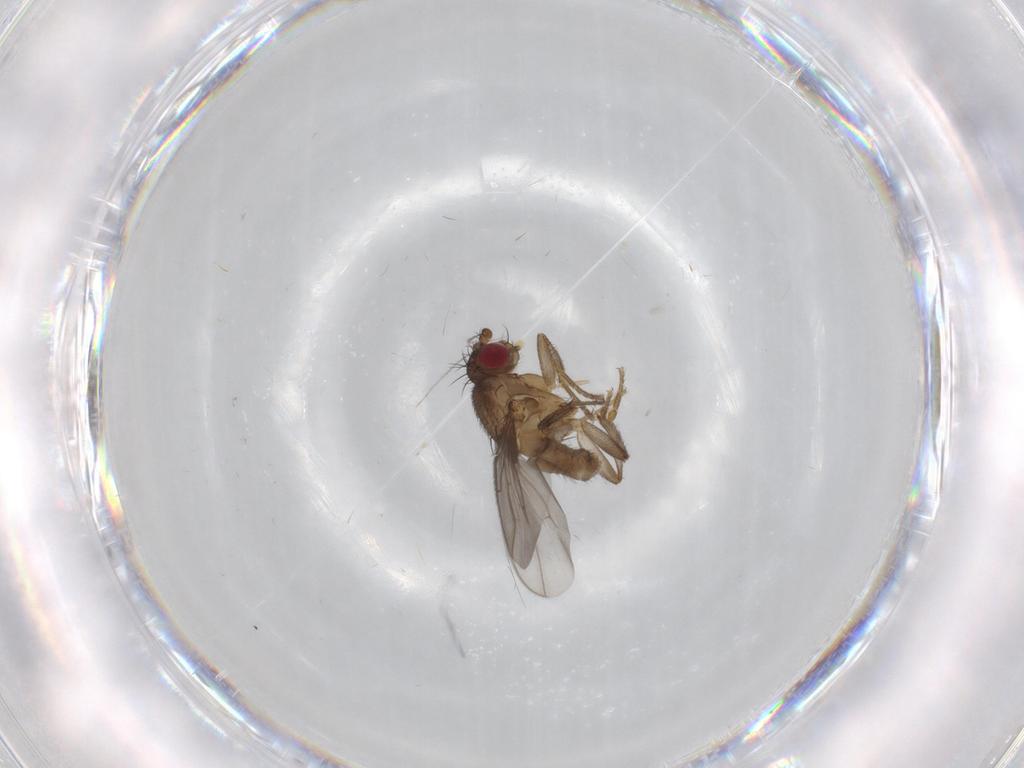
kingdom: Animalia
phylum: Arthropoda
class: Insecta
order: Diptera
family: Sphaeroceridae
